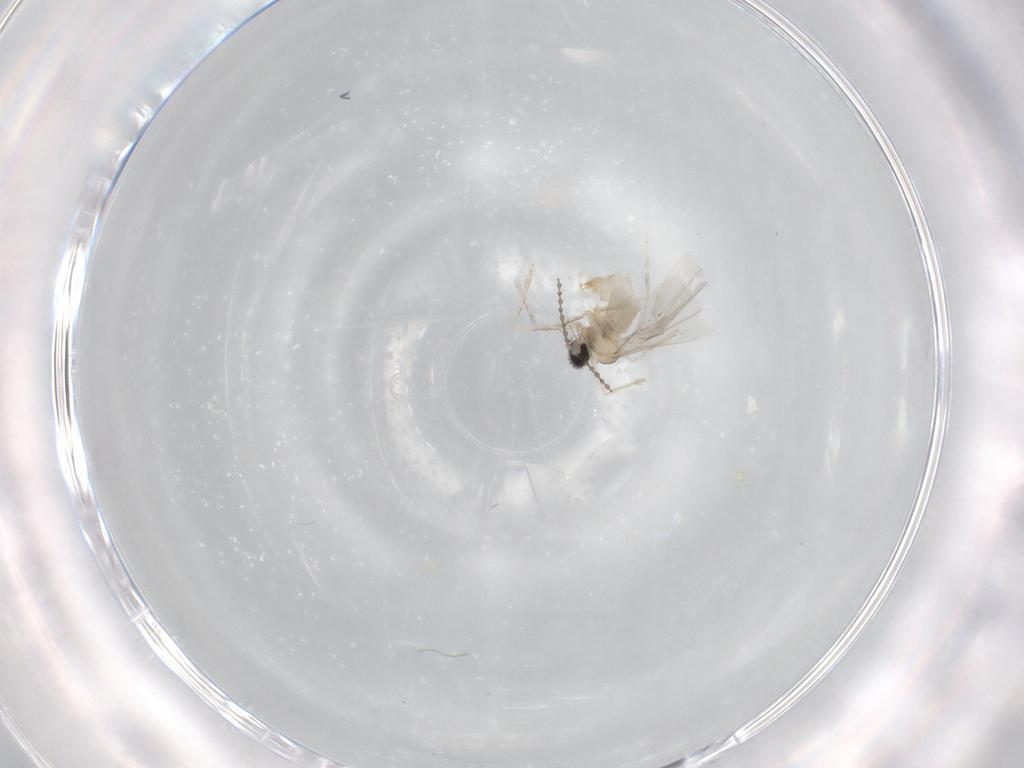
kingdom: Animalia
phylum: Arthropoda
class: Insecta
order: Diptera
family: Cecidomyiidae
